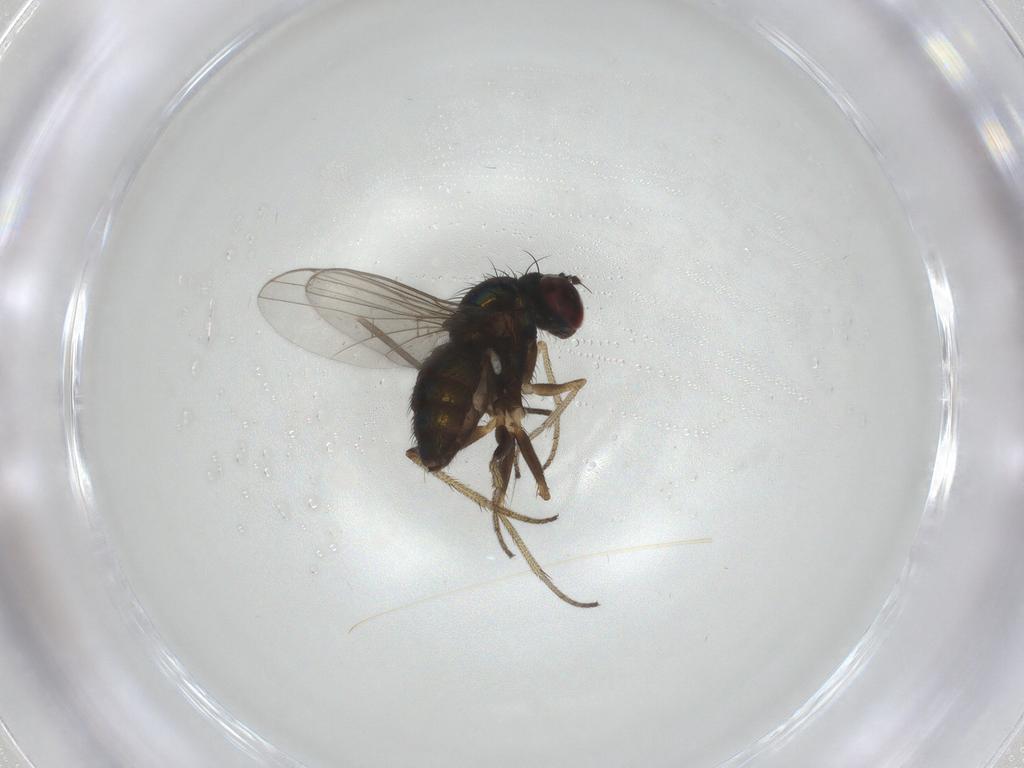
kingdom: Animalia
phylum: Arthropoda
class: Insecta
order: Diptera
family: Sciaridae
